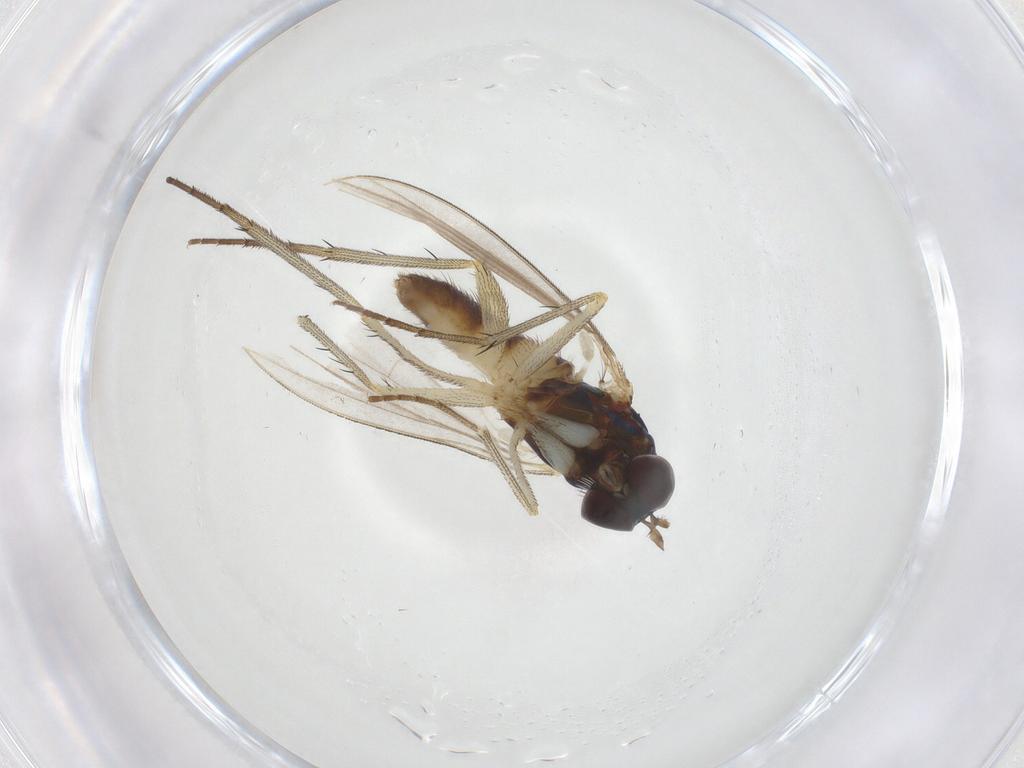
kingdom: Animalia
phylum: Arthropoda
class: Insecta
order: Diptera
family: Dolichopodidae
